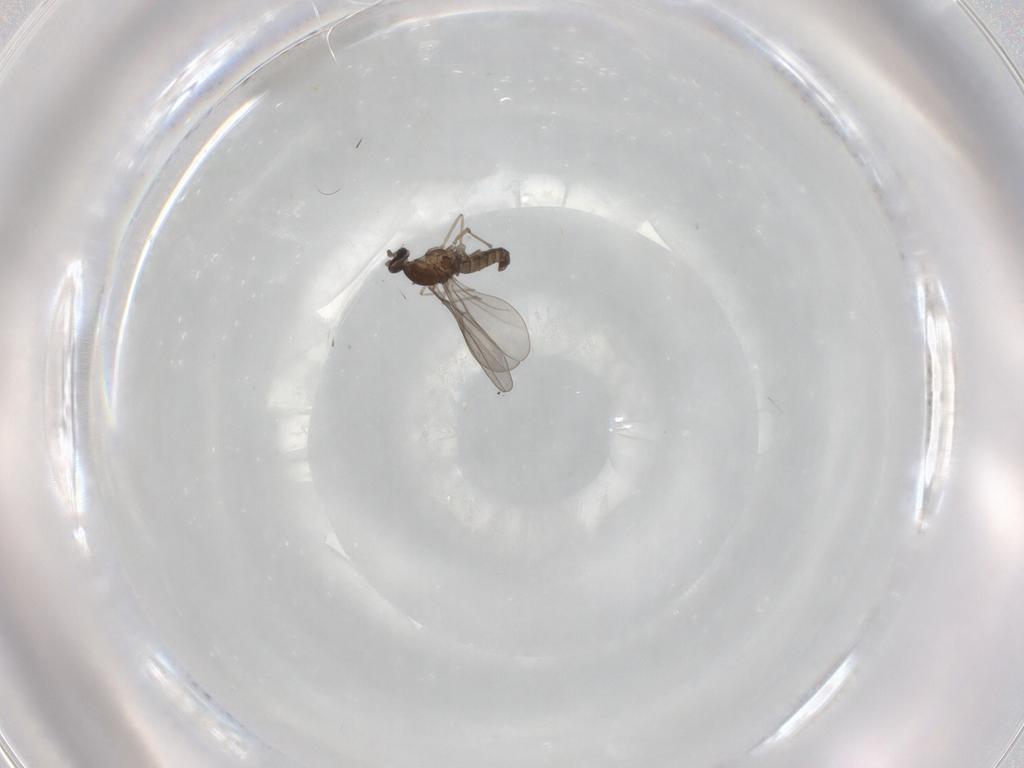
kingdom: Animalia
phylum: Arthropoda
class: Insecta
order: Diptera
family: Cecidomyiidae
